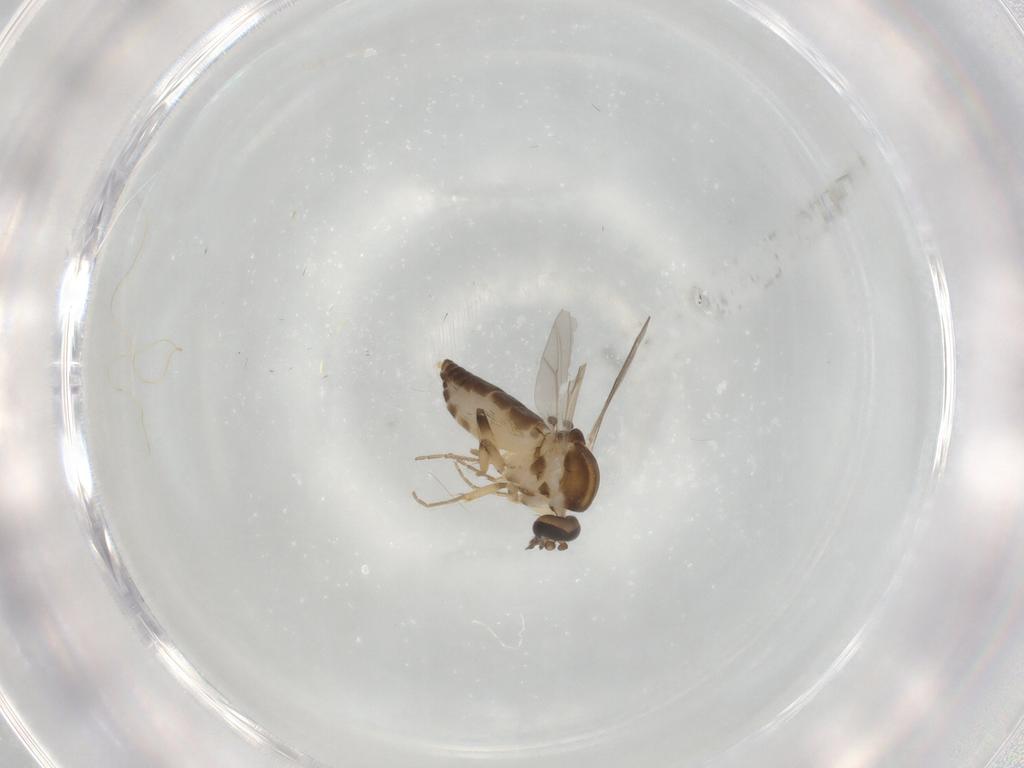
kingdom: Animalia
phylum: Arthropoda
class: Insecta
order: Diptera
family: Ceratopogonidae
